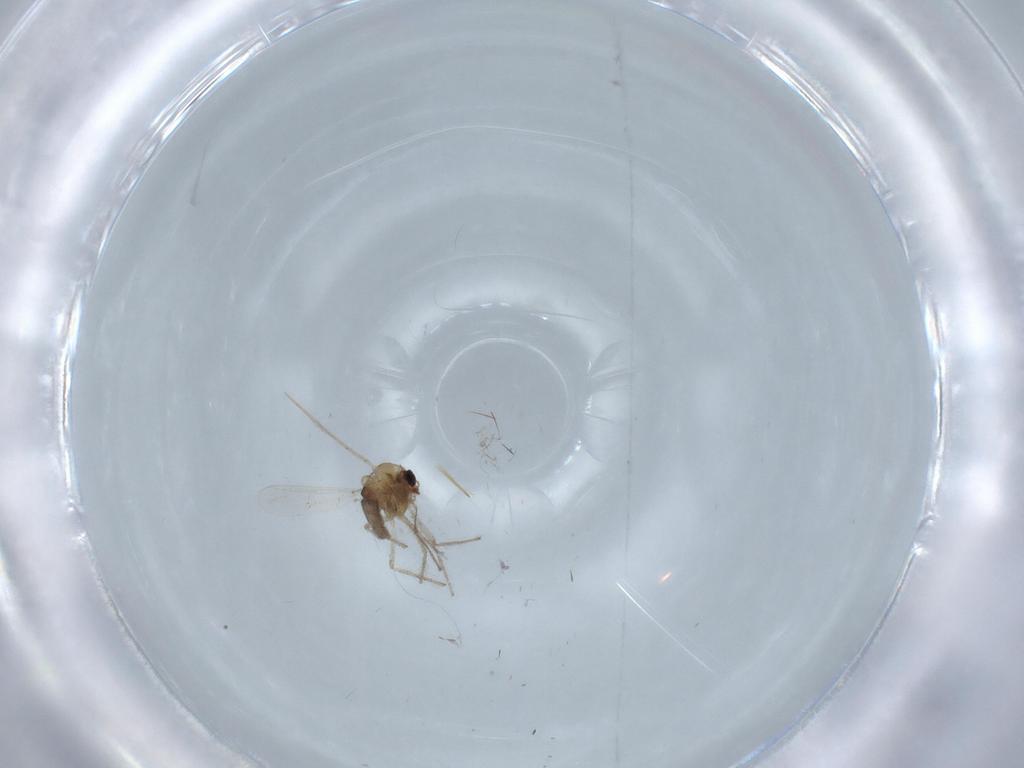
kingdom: Animalia
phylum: Arthropoda
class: Insecta
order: Diptera
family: Chironomidae
